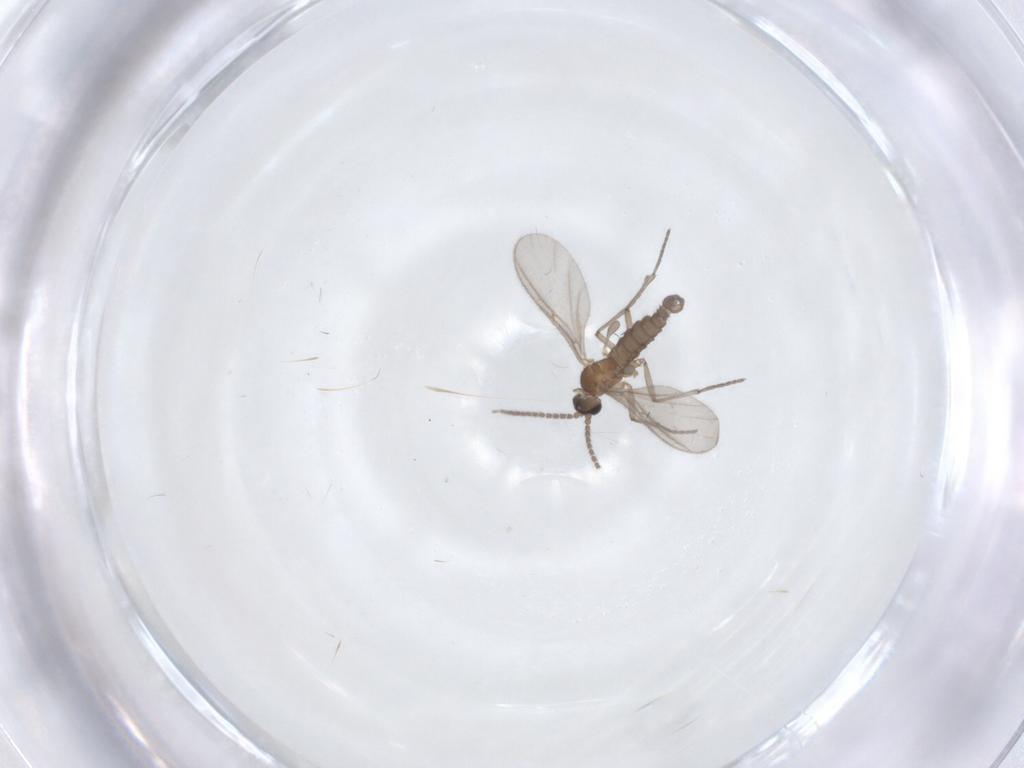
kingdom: Animalia
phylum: Arthropoda
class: Insecta
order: Diptera
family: Sciaridae
